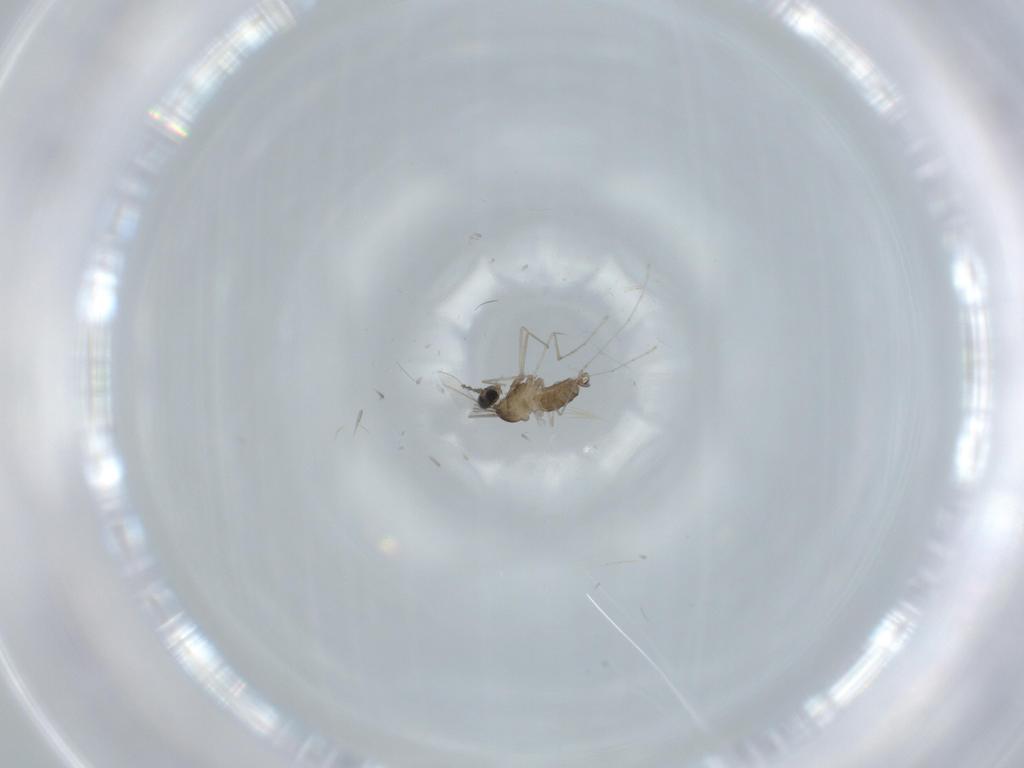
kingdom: Animalia
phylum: Arthropoda
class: Insecta
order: Diptera
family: Cecidomyiidae
